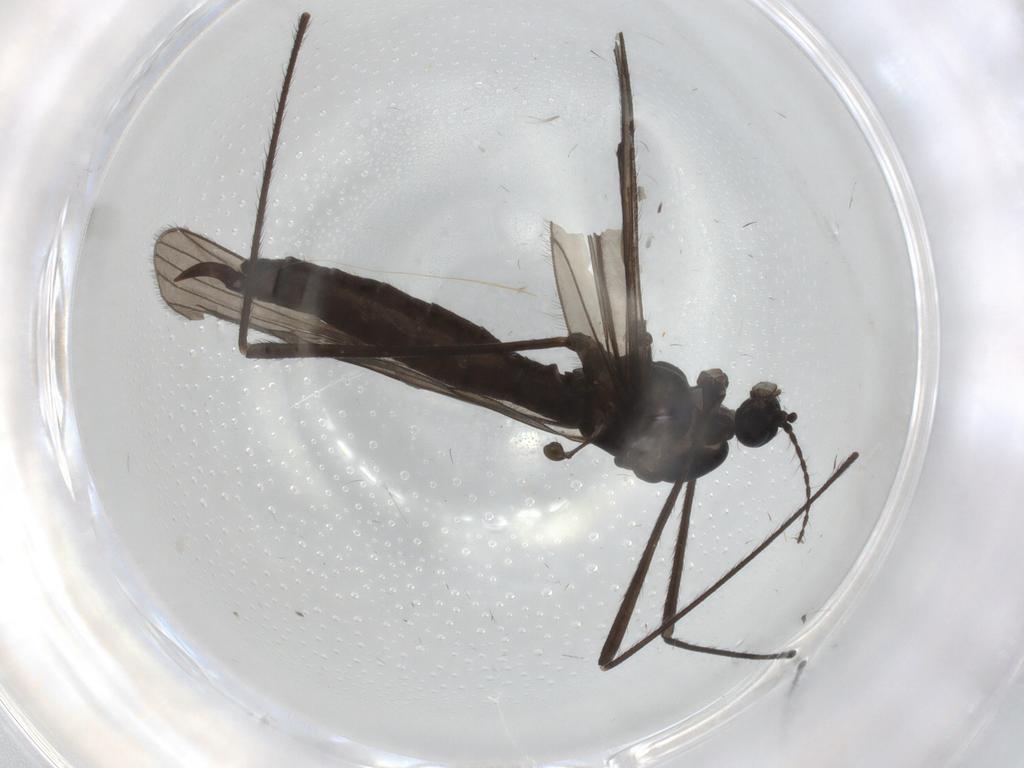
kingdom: Animalia
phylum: Arthropoda
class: Insecta
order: Diptera
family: Limoniidae
